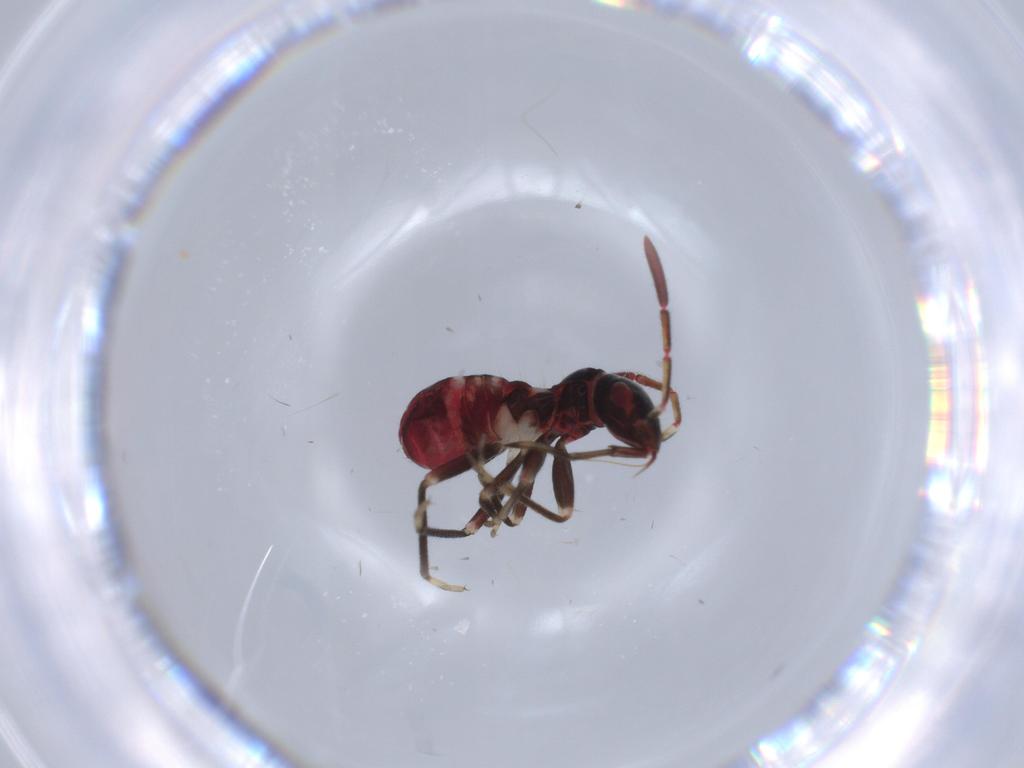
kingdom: Animalia
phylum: Arthropoda
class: Insecta
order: Hemiptera
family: Rhyparochromidae
